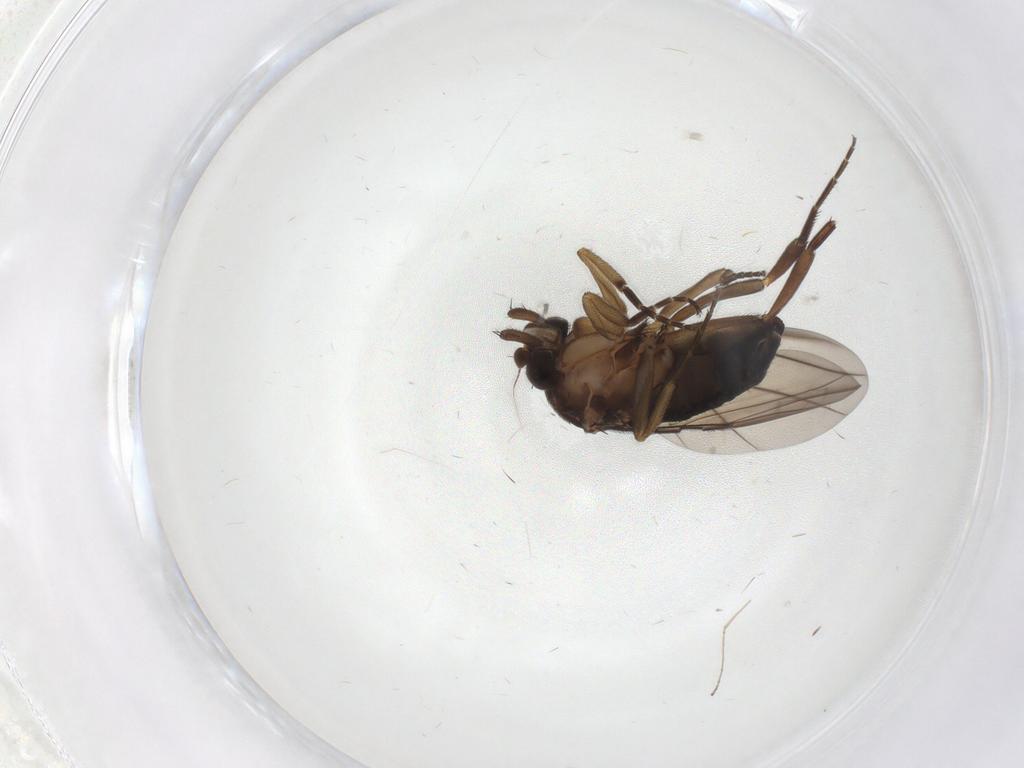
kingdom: Animalia
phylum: Arthropoda
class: Insecta
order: Diptera
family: Phoridae
